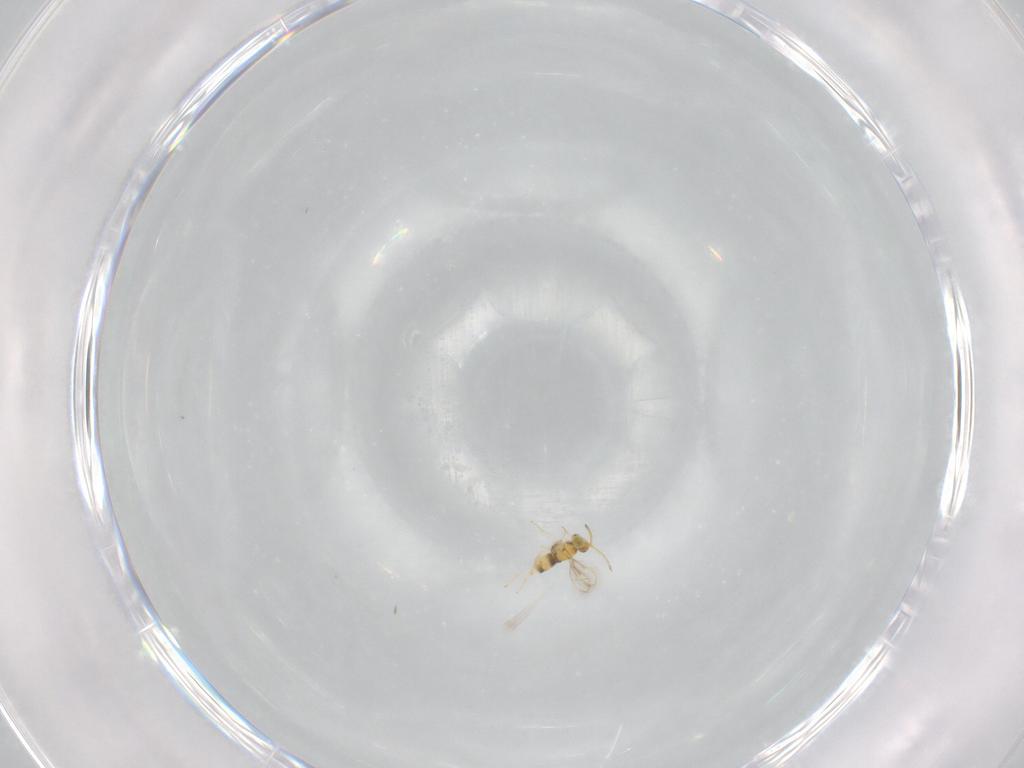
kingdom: Animalia
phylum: Arthropoda
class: Insecta
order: Hymenoptera
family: Aphelinidae
